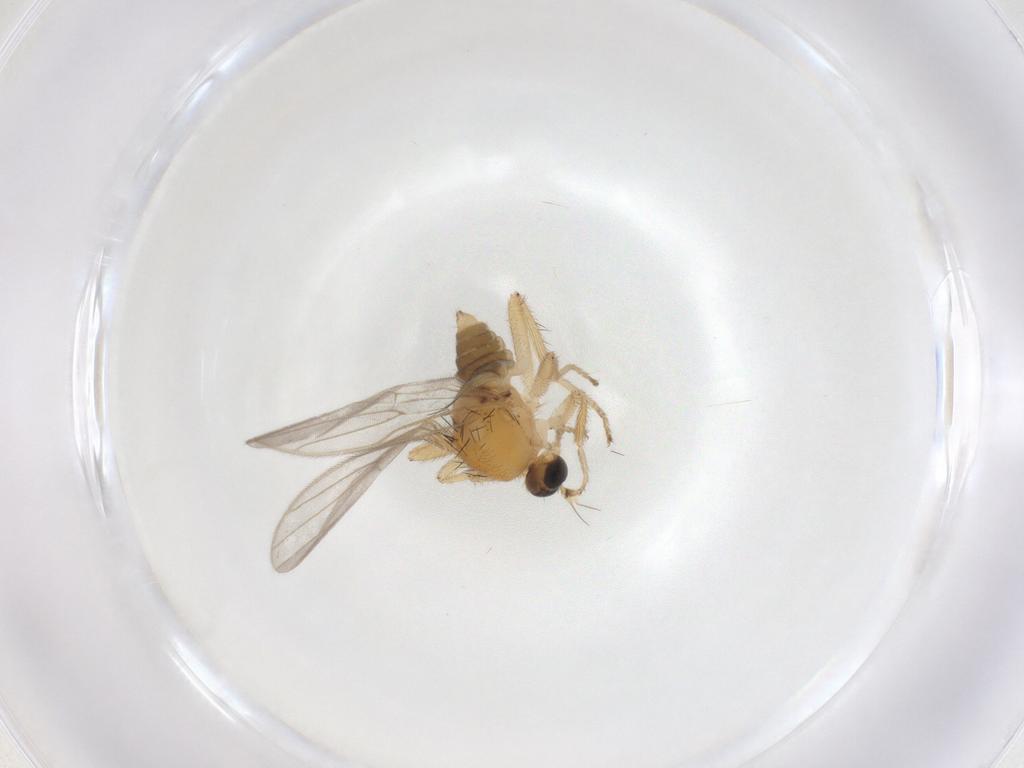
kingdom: Animalia
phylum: Arthropoda
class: Insecta
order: Diptera
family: Hybotidae
